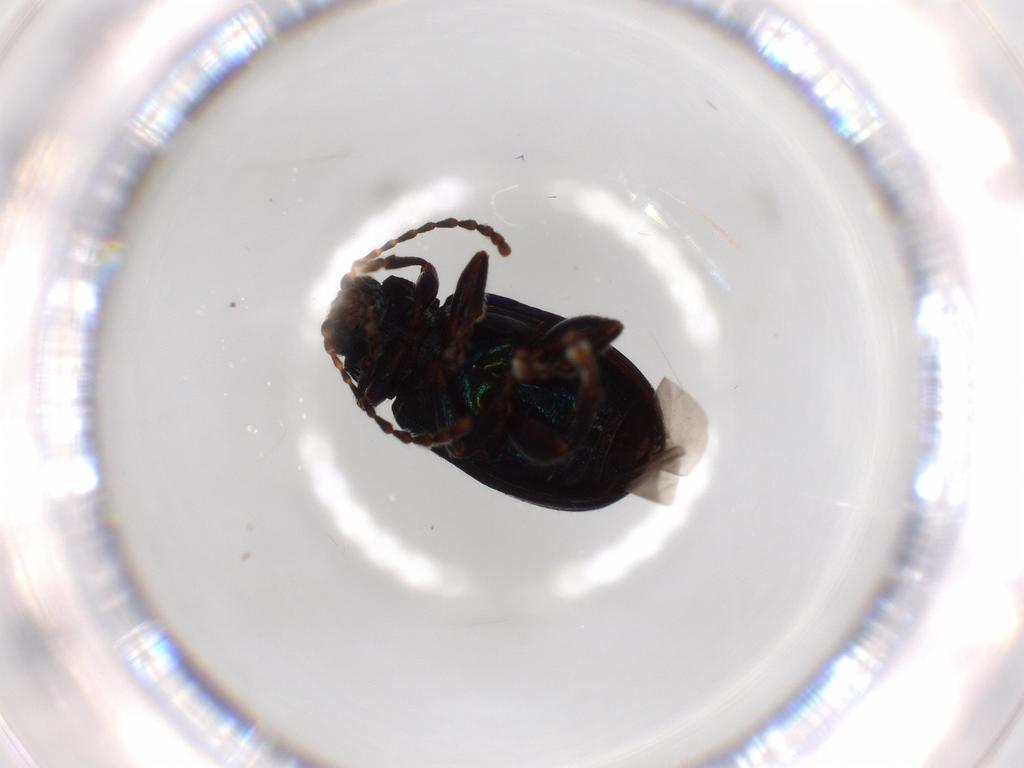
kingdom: Animalia
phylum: Arthropoda
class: Insecta
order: Coleoptera
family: Chrysomelidae
